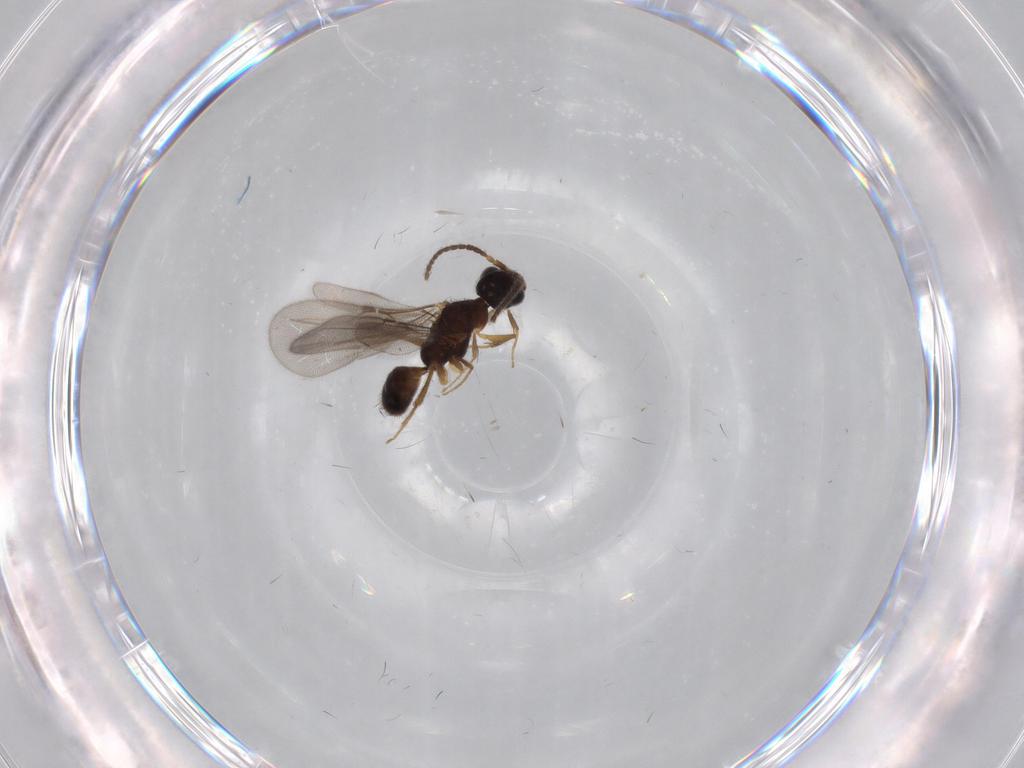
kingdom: Animalia
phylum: Arthropoda
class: Insecta
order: Hymenoptera
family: Bethylidae
